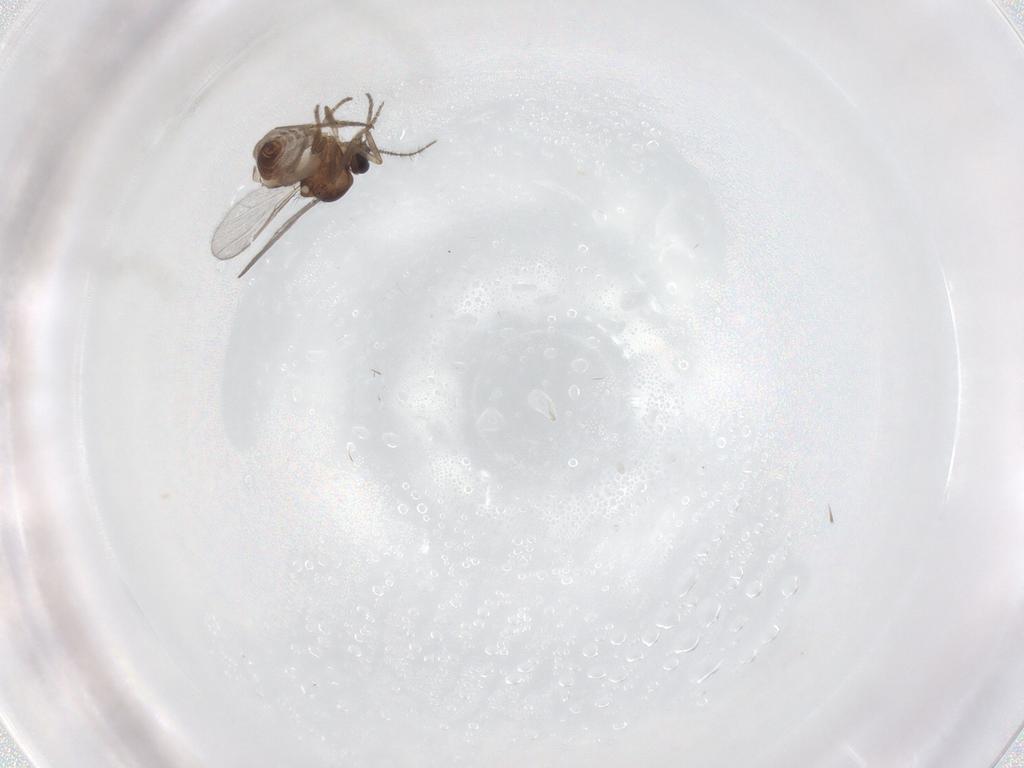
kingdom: Animalia
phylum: Arthropoda
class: Insecta
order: Diptera
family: Ceratopogonidae
